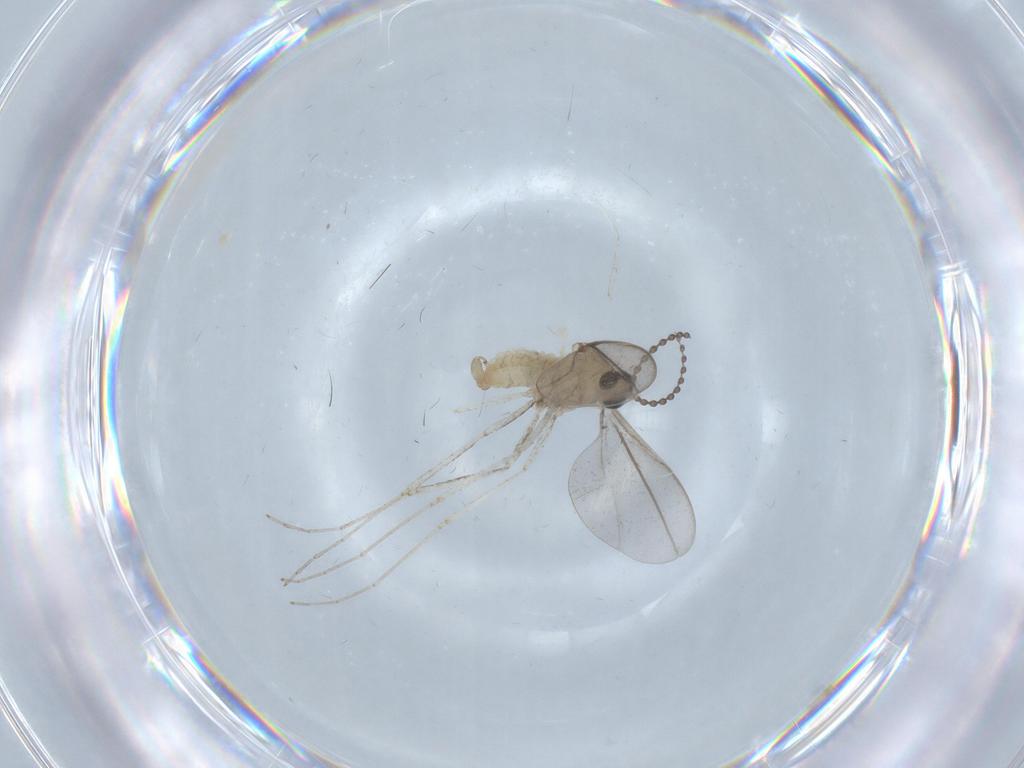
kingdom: Animalia
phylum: Arthropoda
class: Insecta
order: Diptera
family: Cecidomyiidae
